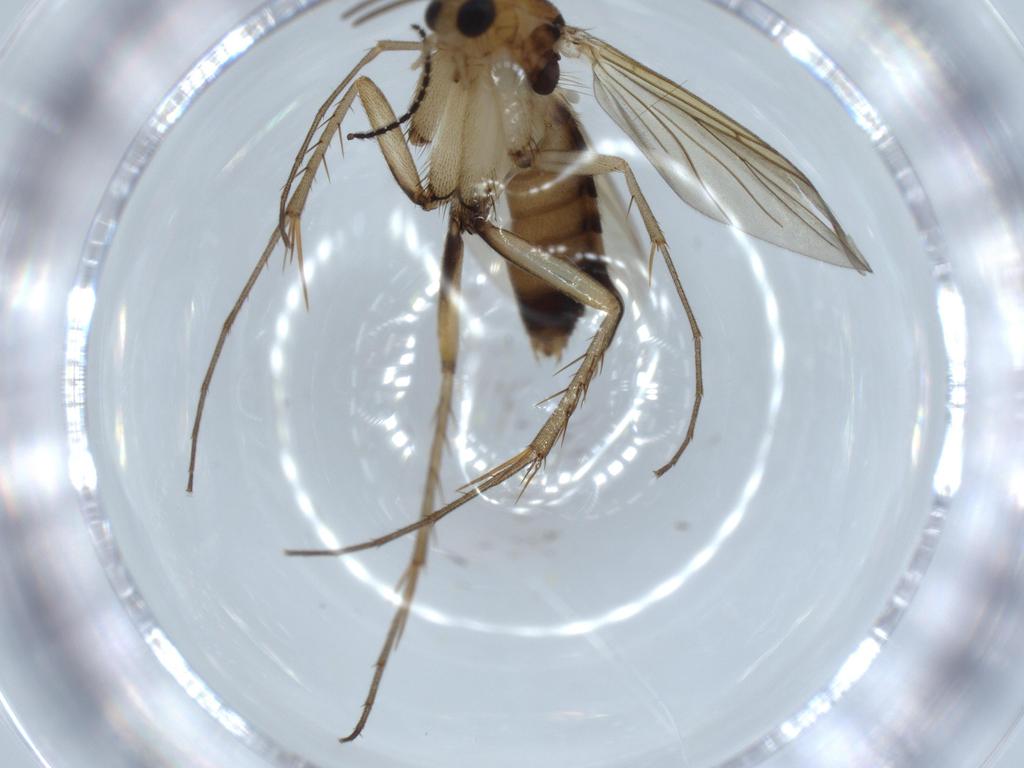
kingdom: Animalia
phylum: Arthropoda
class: Insecta
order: Diptera
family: Mycetophilidae
